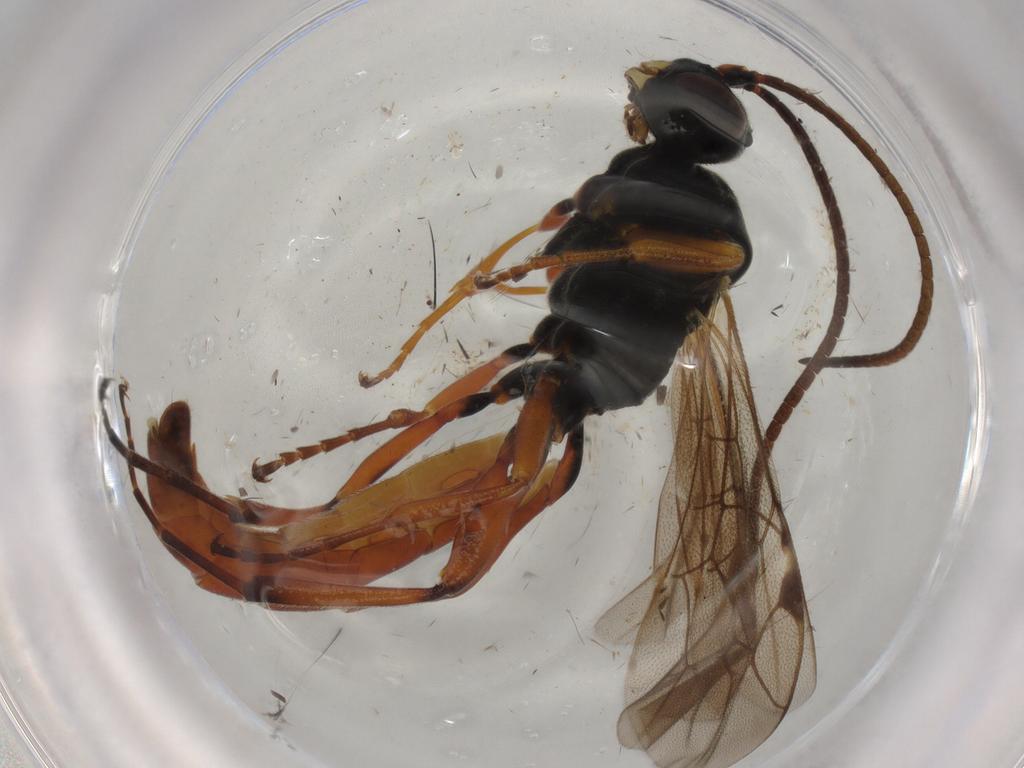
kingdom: Animalia
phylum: Arthropoda
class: Insecta
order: Hymenoptera
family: Ichneumonidae
